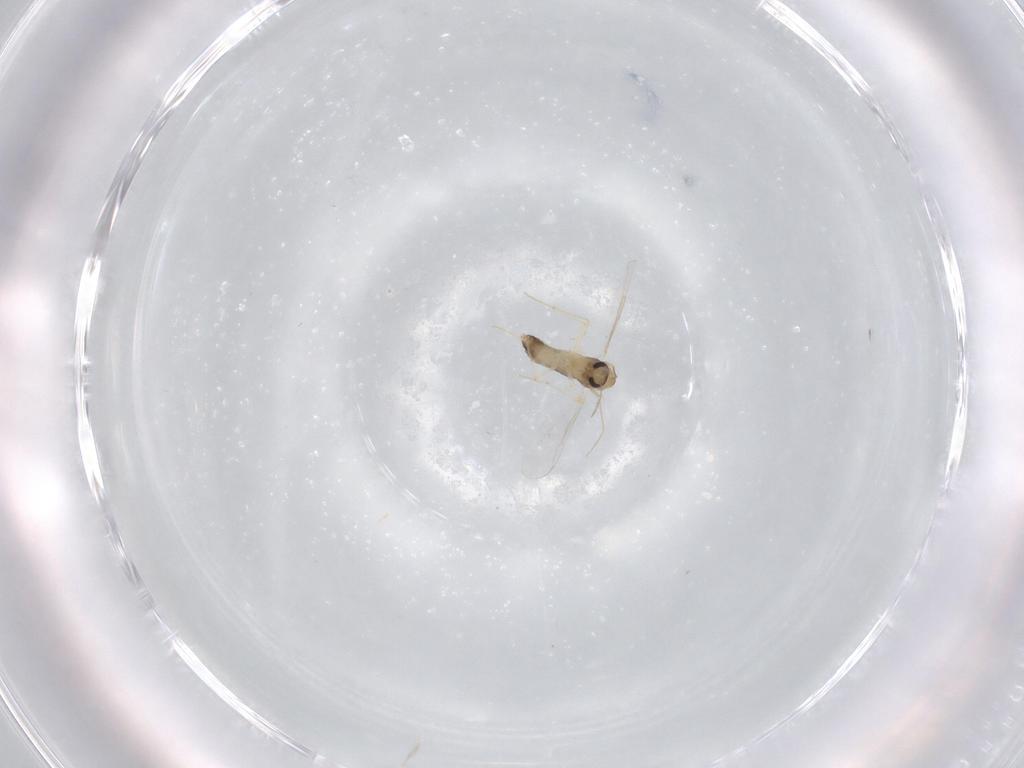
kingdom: Animalia
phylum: Arthropoda
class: Insecta
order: Diptera
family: Chironomidae
